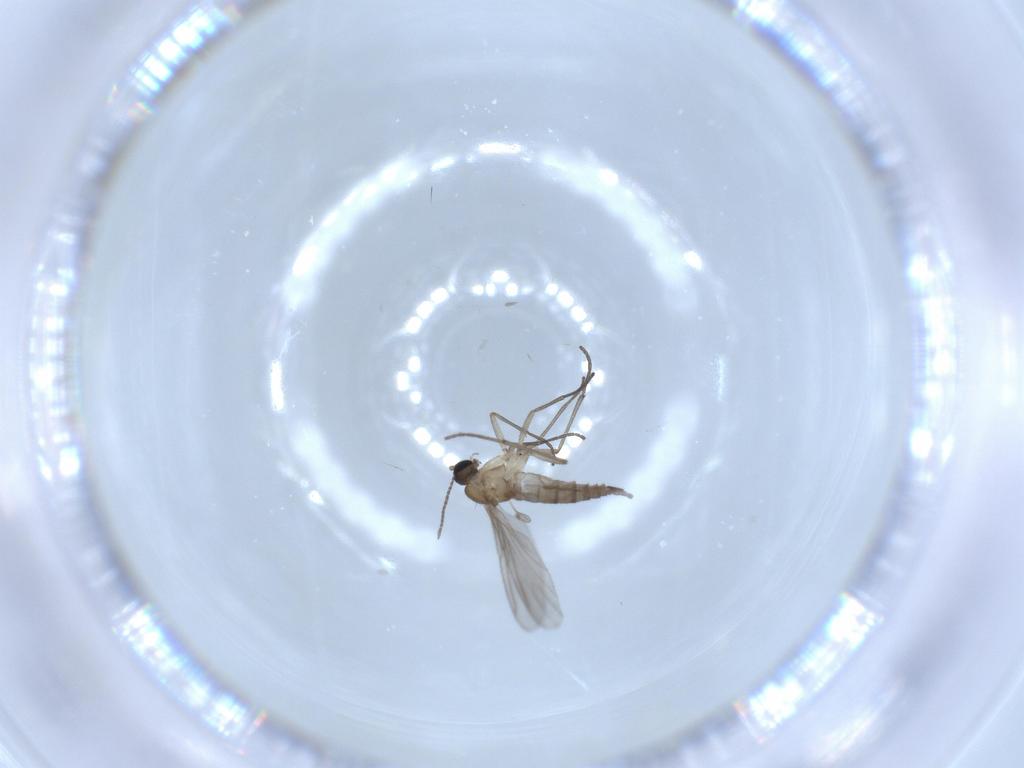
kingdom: Animalia
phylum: Arthropoda
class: Insecta
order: Diptera
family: Sciaridae
